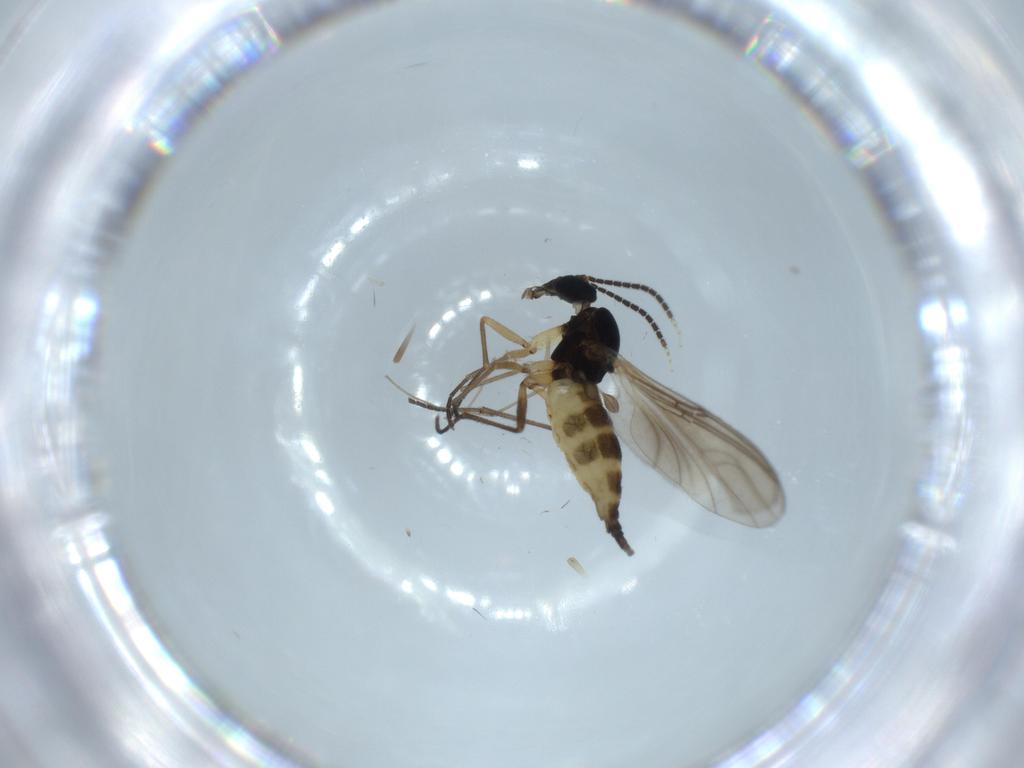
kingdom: Animalia
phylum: Arthropoda
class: Insecta
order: Diptera
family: Sciaridae
